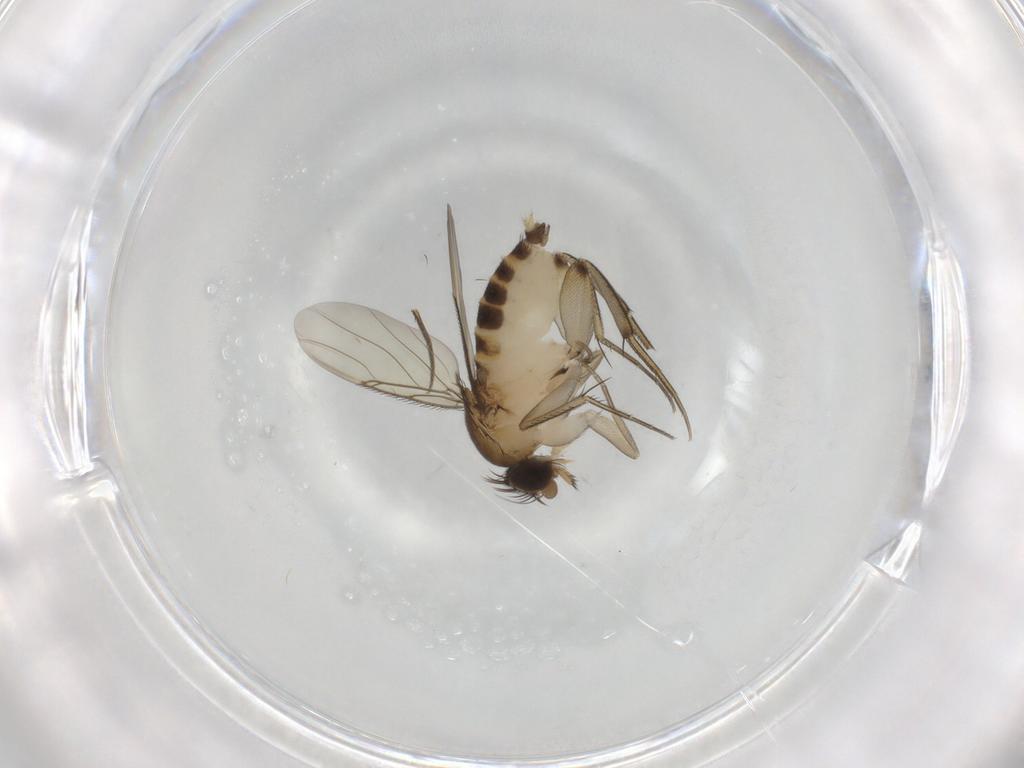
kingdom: Animalia
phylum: Arthropoda
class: Insecta
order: Diptera
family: Phoridae
